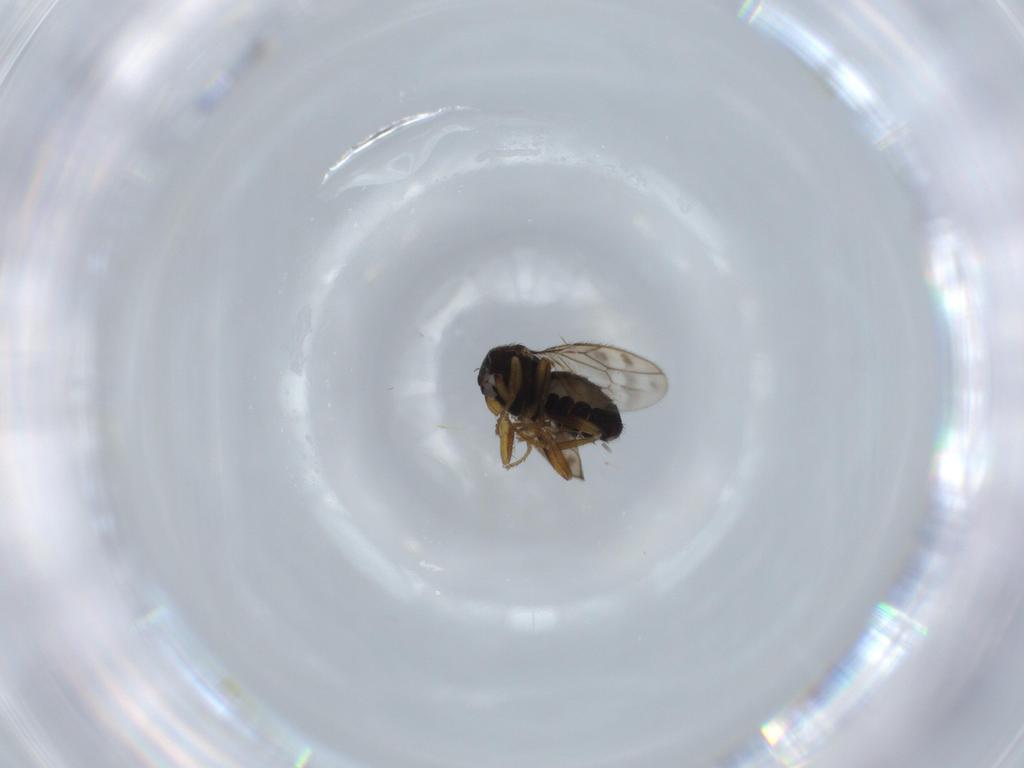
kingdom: Animalia
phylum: Arthropoda
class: Insecta
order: Diptera
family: Sphaeroceridae
